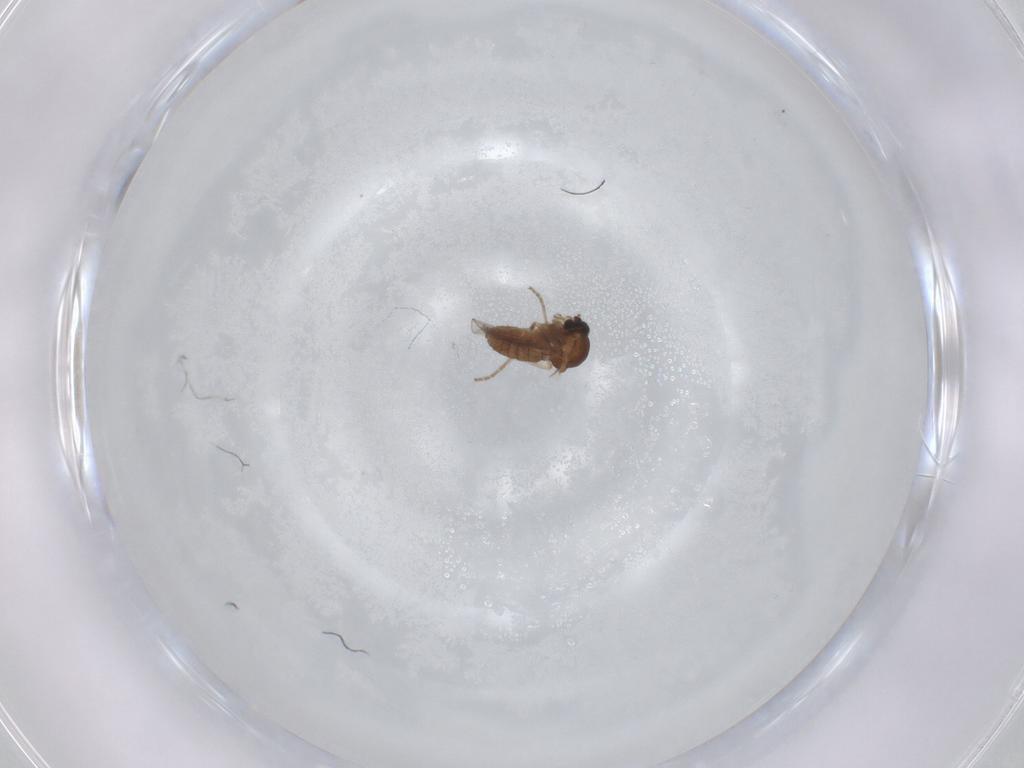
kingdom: Animalia
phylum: Arthropoda
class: Insecta
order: Diptera
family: Ceratopogonidae
